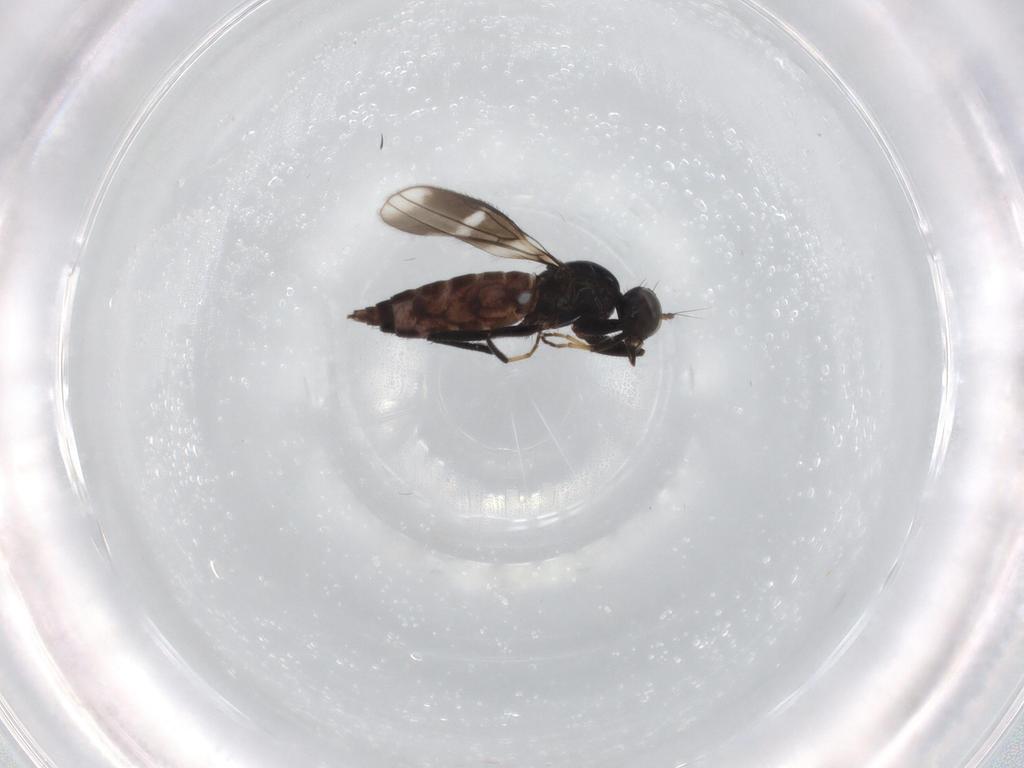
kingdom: Animalia
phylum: Arthropoda
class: Insecta
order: Diptera
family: Hybotidae
